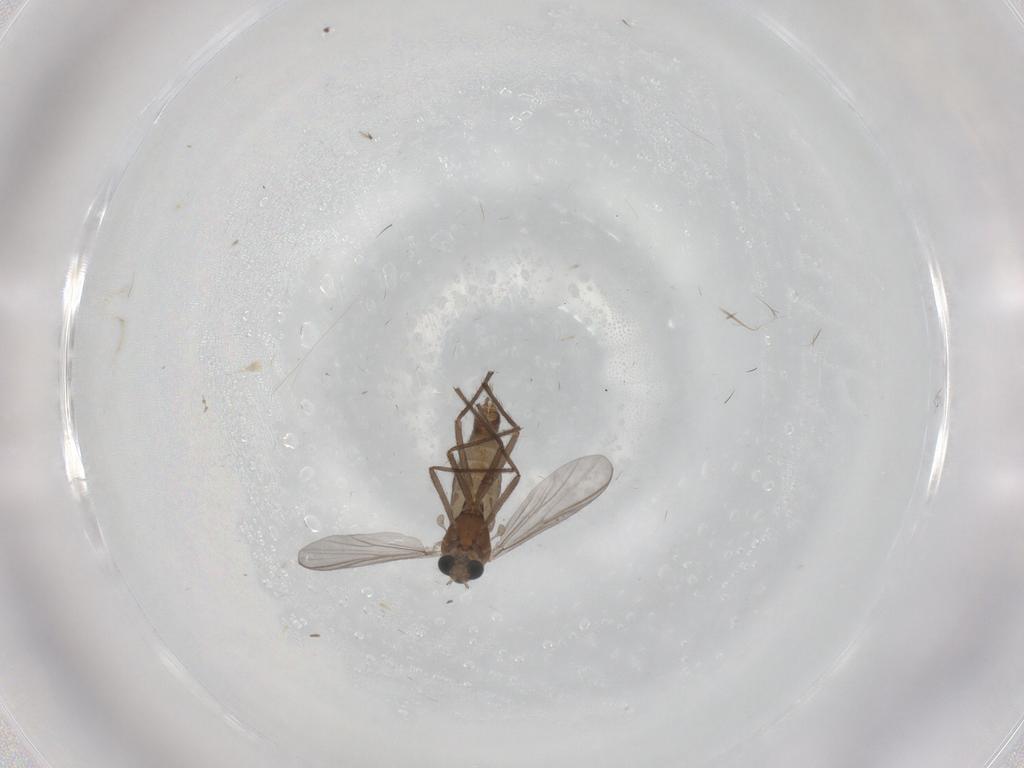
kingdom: Animalia
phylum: Arthropoda
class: Insecta
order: Diptera
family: Chironomidae
